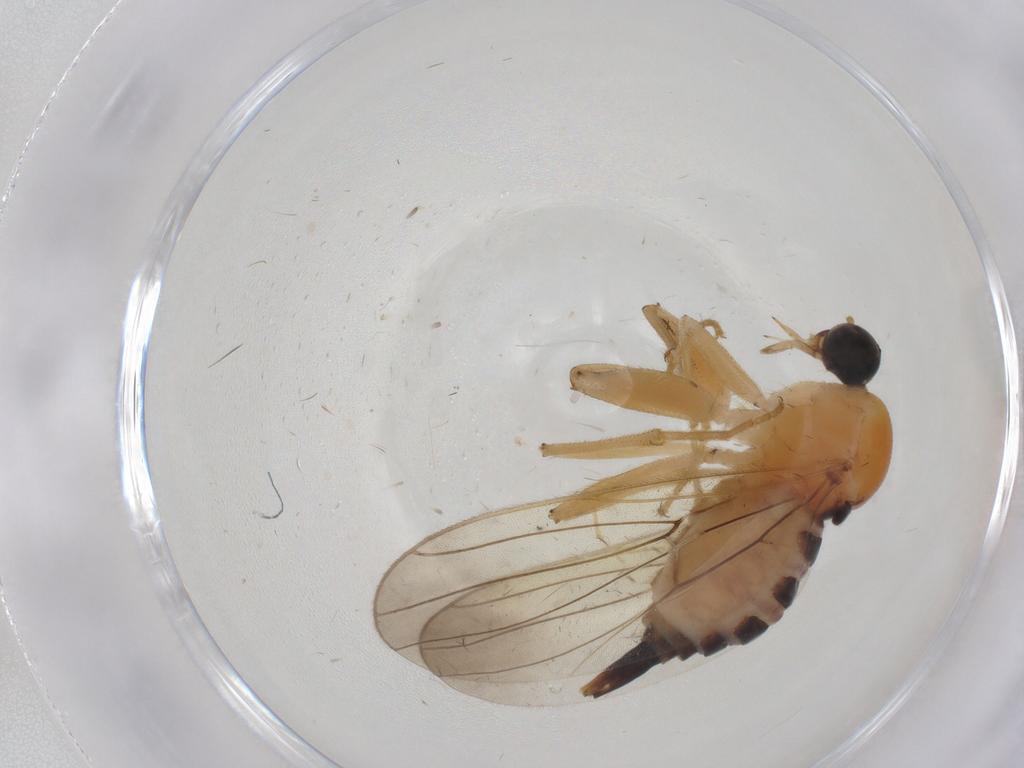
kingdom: Animalia
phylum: Arthropoda
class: Insecta
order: Diptera
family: Hybotidae
